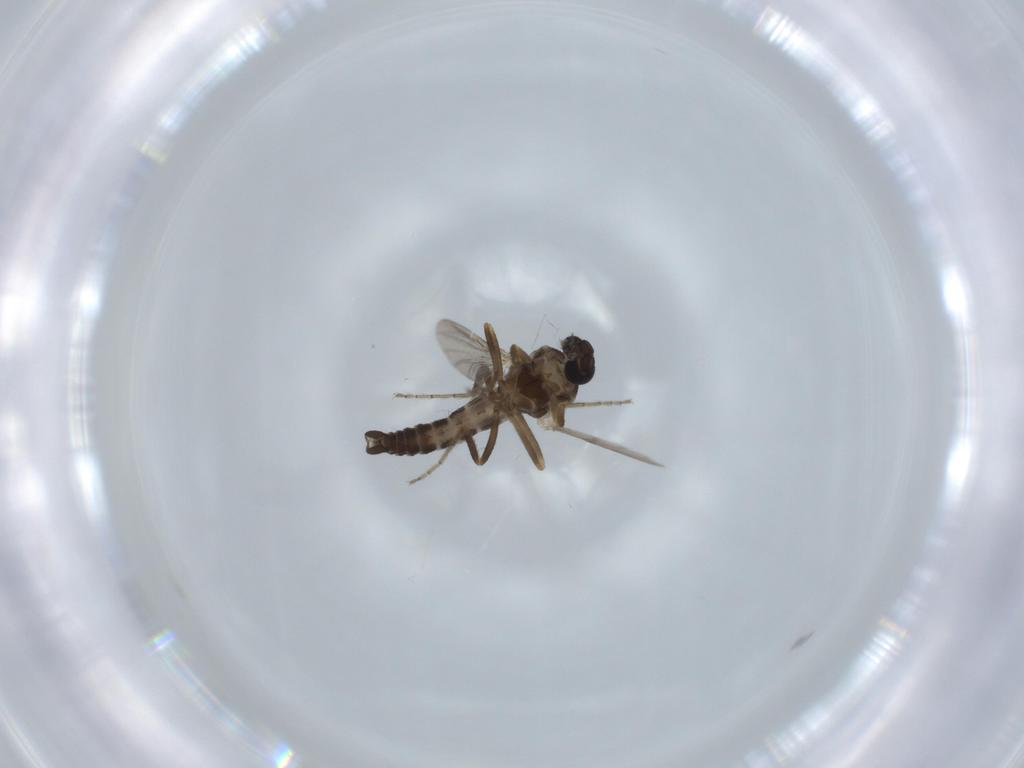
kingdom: Animalia
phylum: Arthropoda
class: Insecta
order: Diptera
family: Ceratopogonidae
